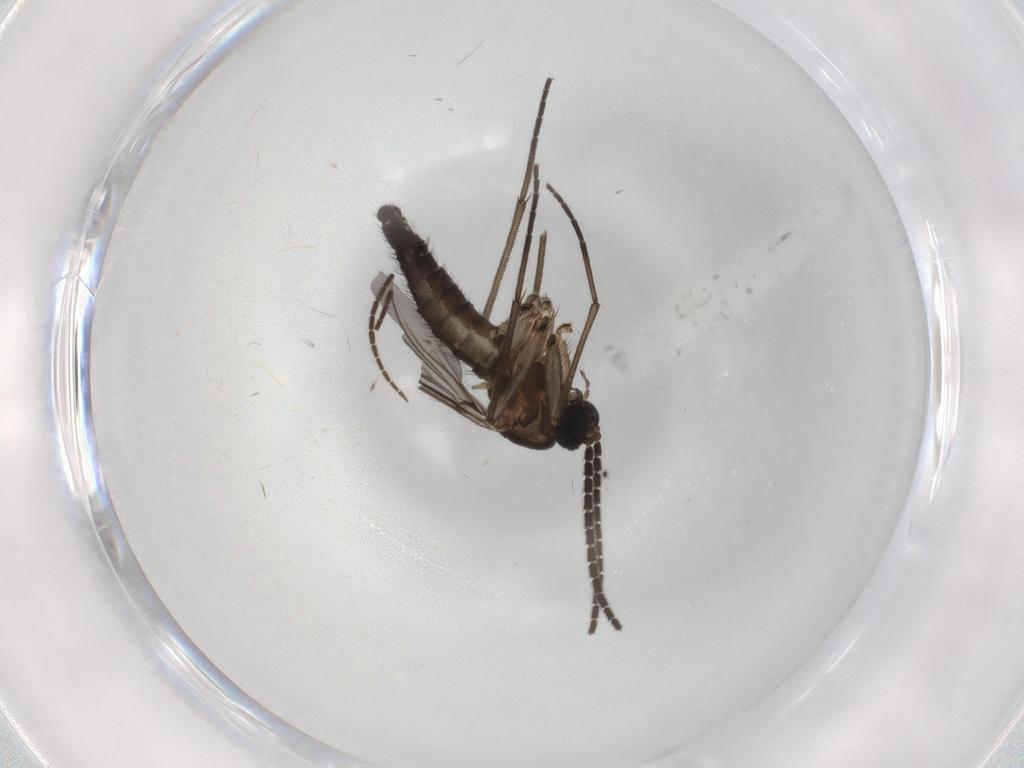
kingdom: Animalia
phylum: Arthropoda
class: Insecta
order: Diptera
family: Sciaridae
